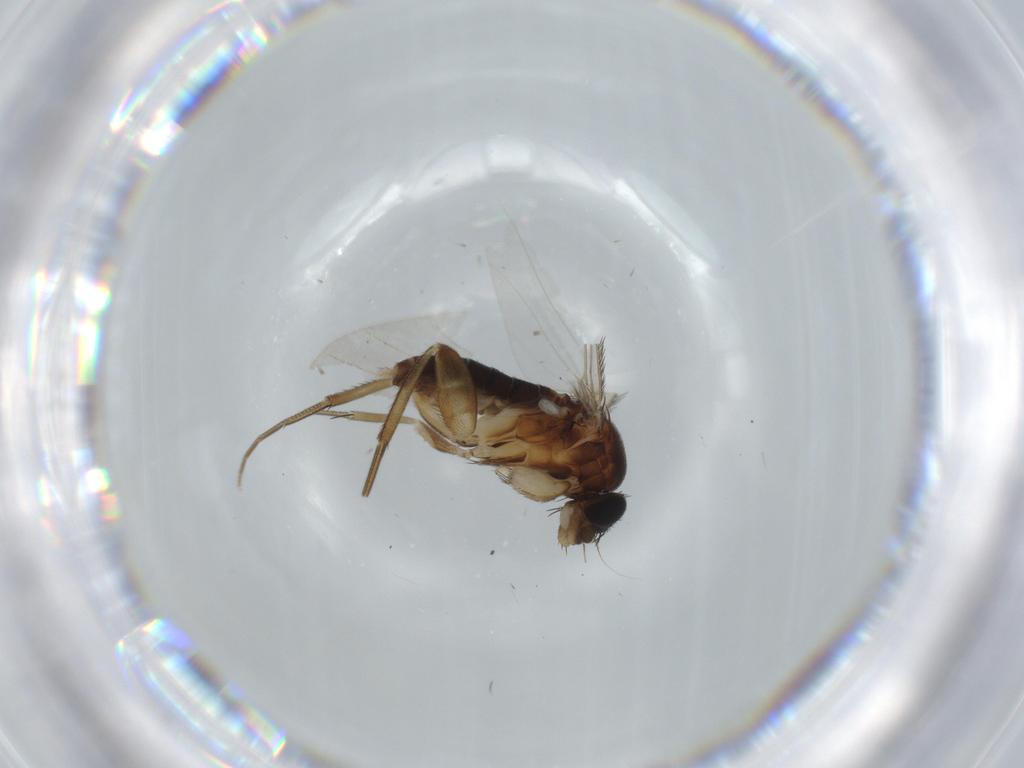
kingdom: Animalia
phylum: Arthropoda
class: Insecta
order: Diptera
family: Phoridae
